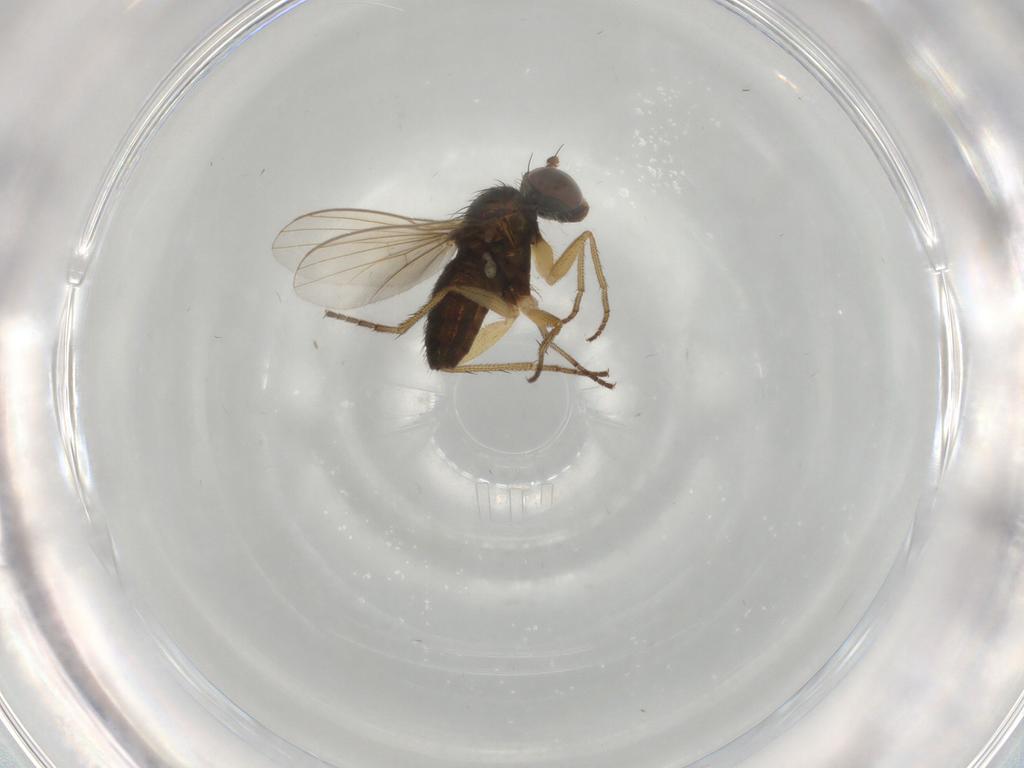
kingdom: Animalia
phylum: Arthropoda
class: Insecta
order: Diptera
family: Limoniidae
